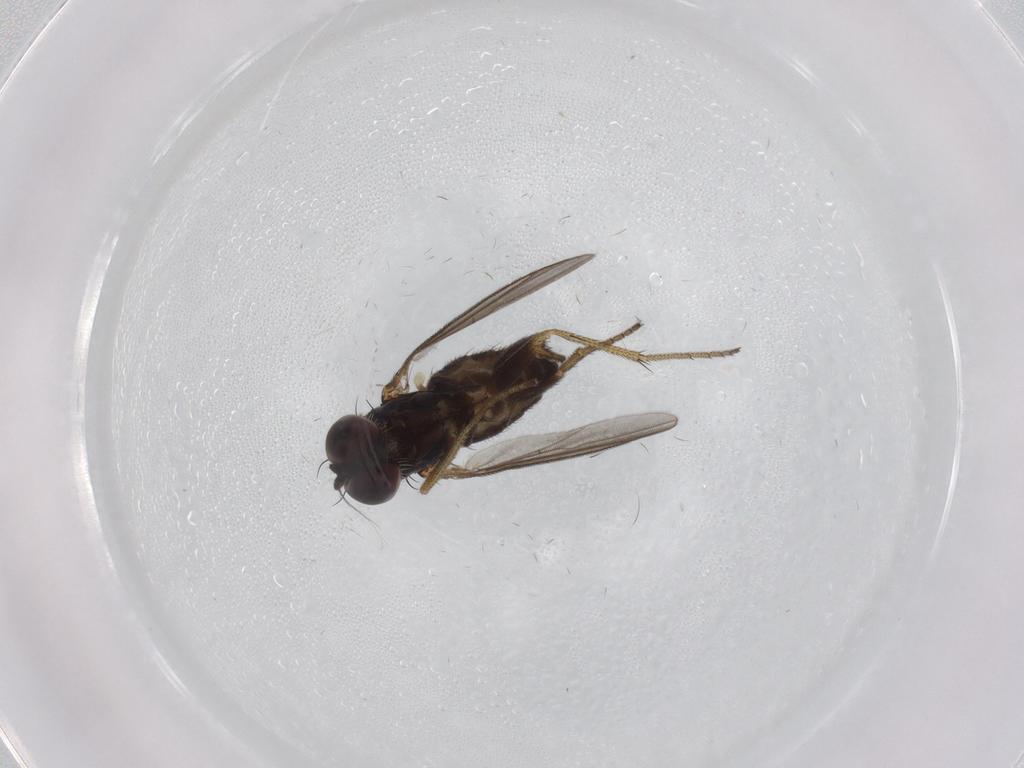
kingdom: Animalia
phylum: Arthropoda
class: Insecta
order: Diptera
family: Dolichopodidae
